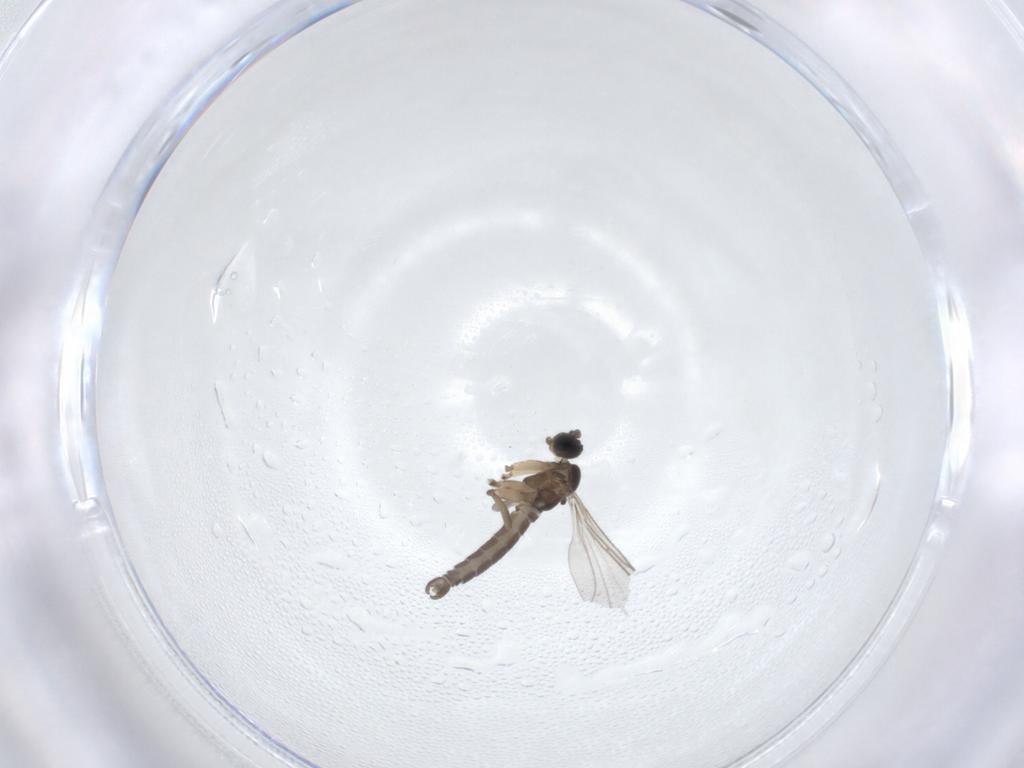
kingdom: Animalia
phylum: Arthropoda
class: Insecta
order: Diptera
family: Sciaridae
